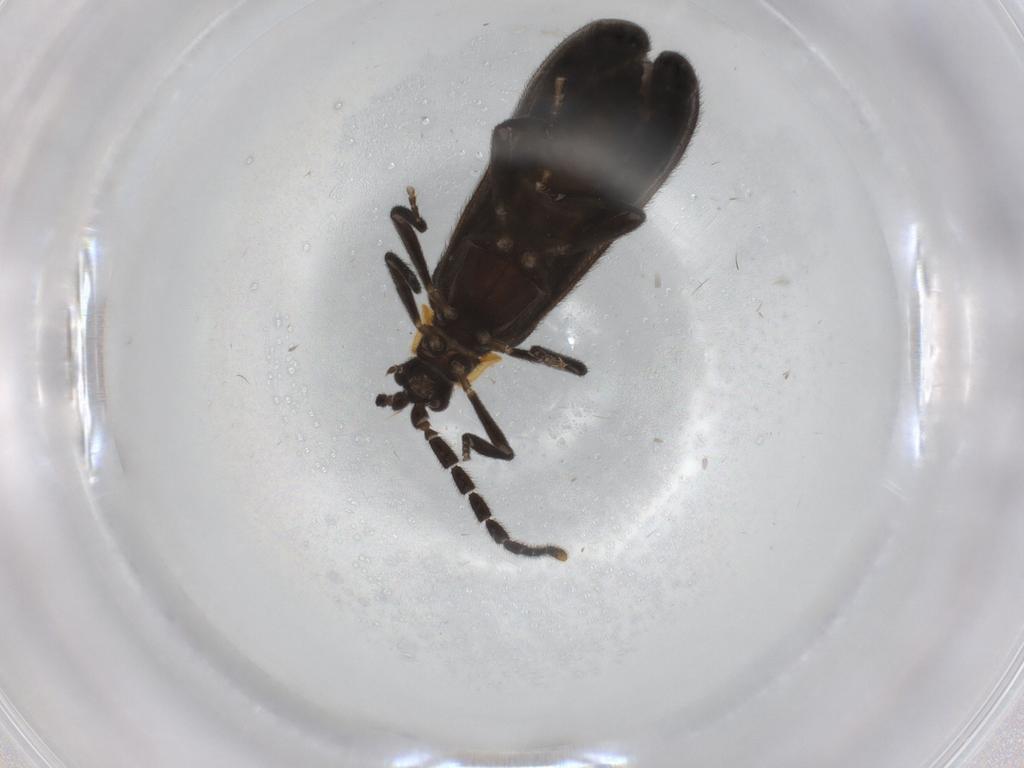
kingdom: Animalia
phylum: Arthropoda
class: Insecta
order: Coleoptera
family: Lycidae
